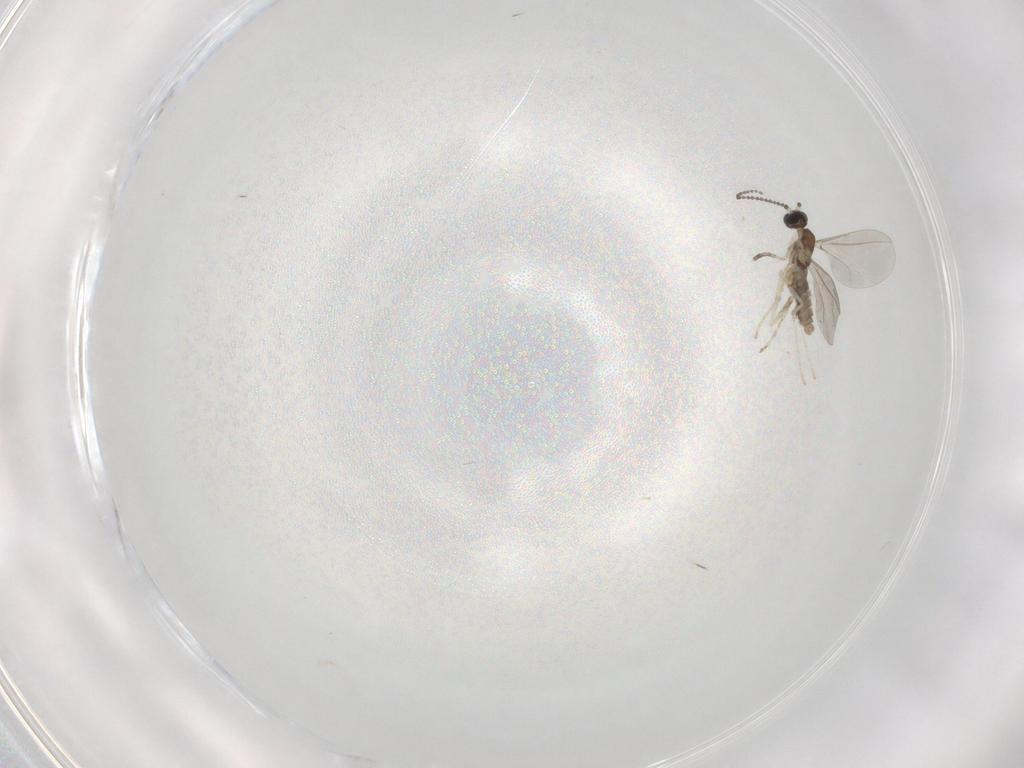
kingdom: Animalia
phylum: Arthropoda
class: Insecta
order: Diptera
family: Cecidomyiidae
